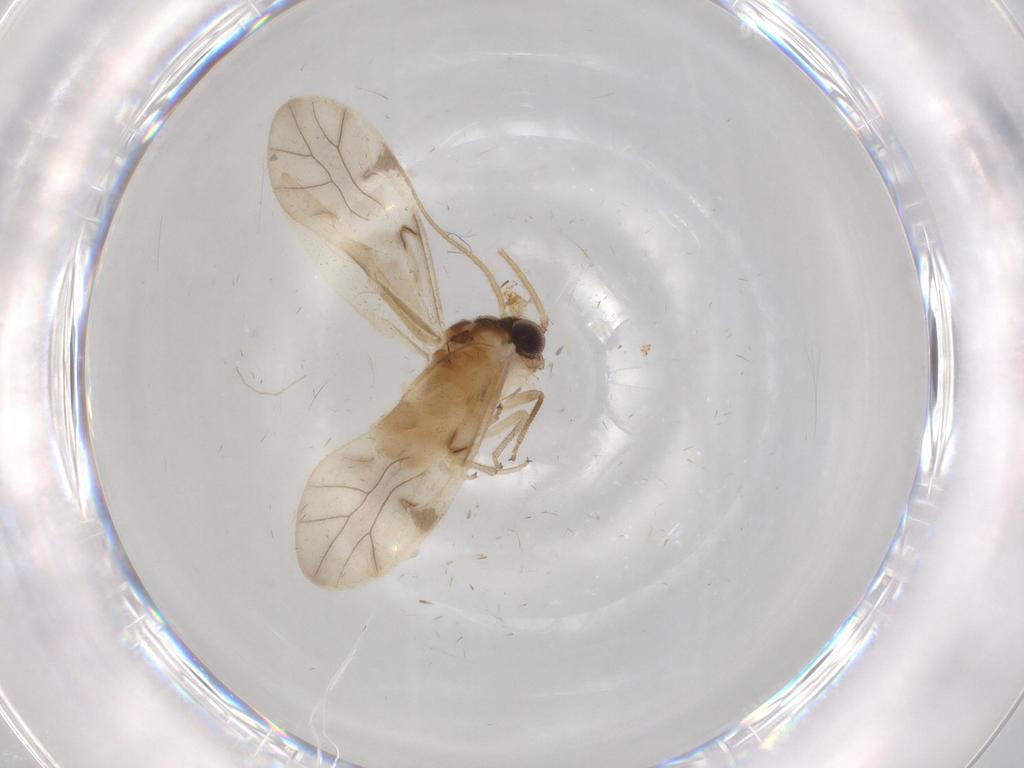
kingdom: Animalia
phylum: Arthropoda
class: Insecta
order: Psocodea
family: Caeciliusidae
